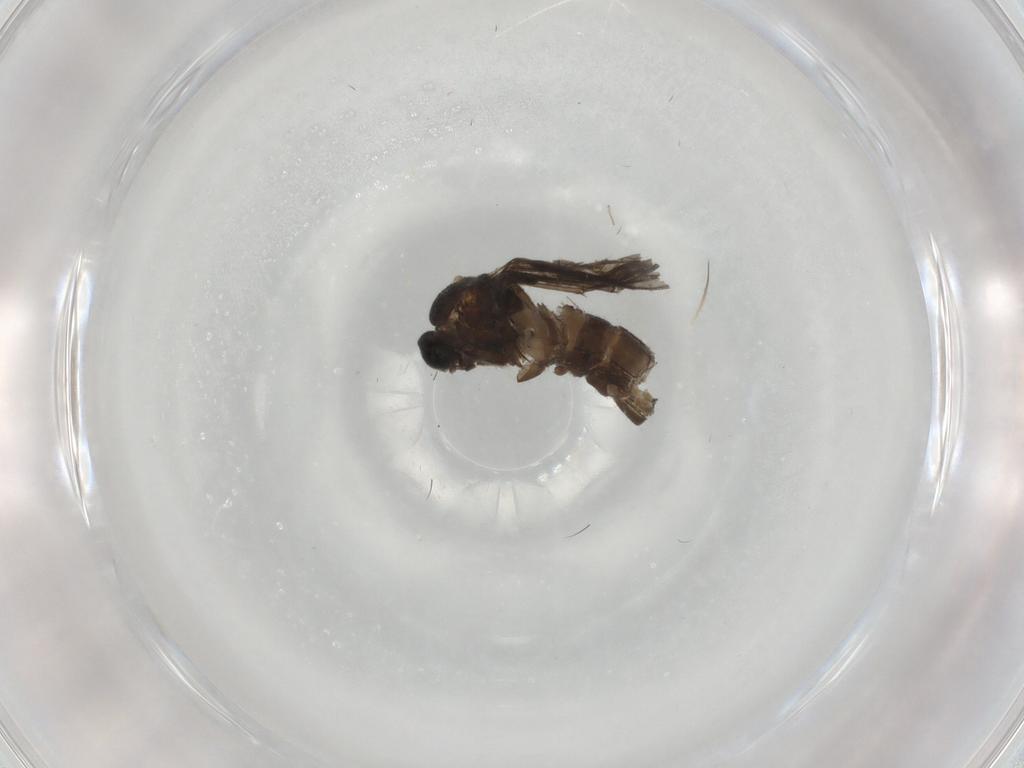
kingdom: Animalia
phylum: Arthropoda
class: Insecta
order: Diptera
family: Chironomidae
